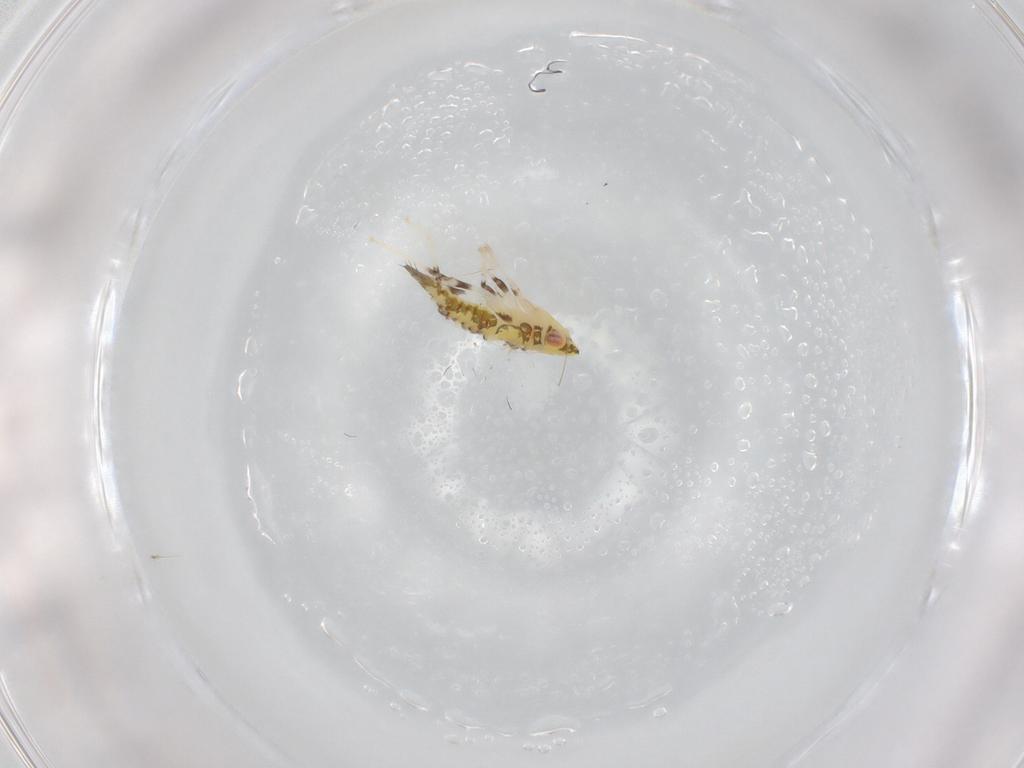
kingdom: Animalia
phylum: Arthropoda
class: Insecta
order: Hemiptera
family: Cicadellidae
